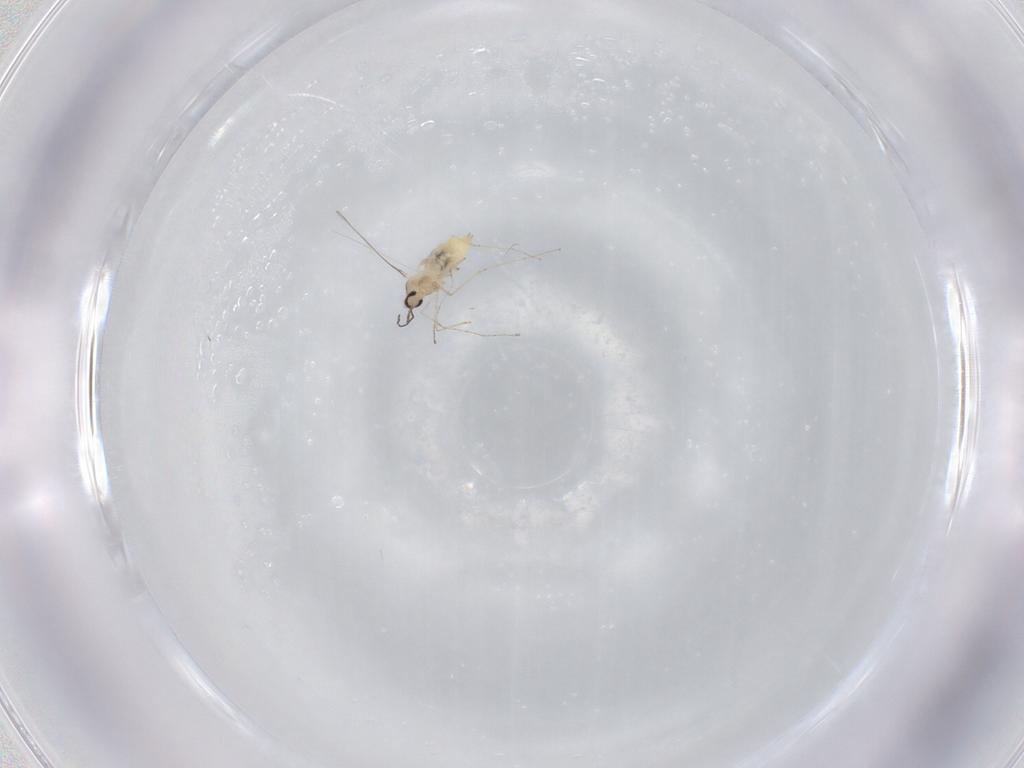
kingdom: Animalia
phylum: Arthropoda
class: Insecta
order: Diptera
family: Cecidomyiidae
